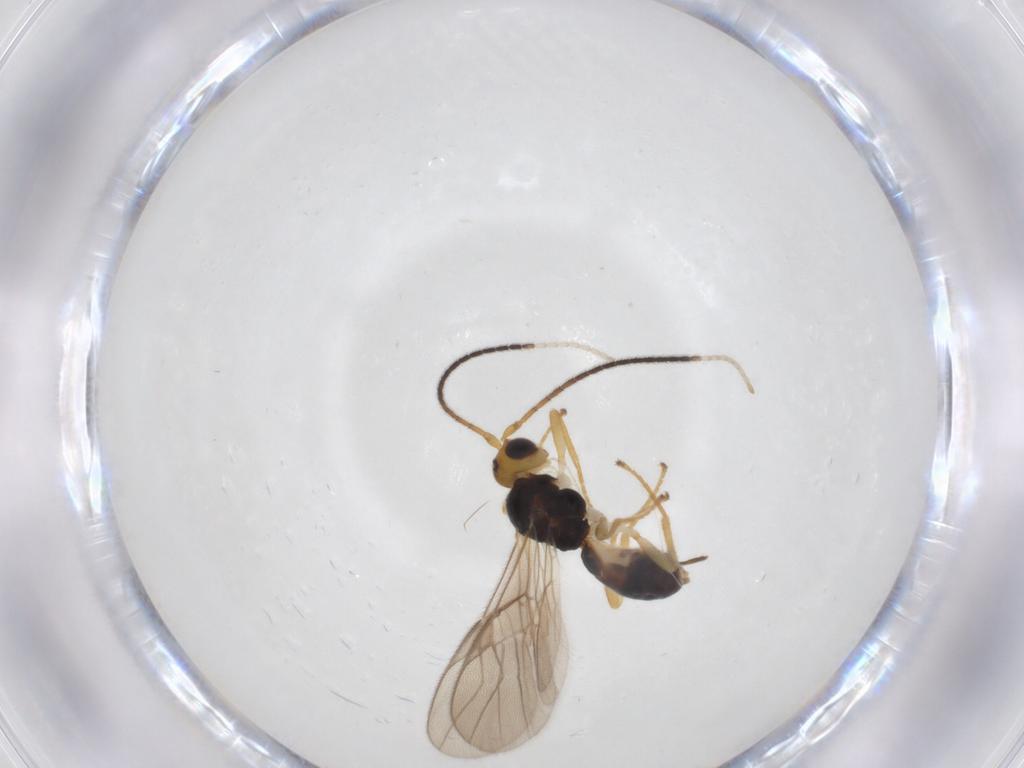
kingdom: Animalia
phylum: Arthropoda
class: Insecta
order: Hymenoptera
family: Braconidae
